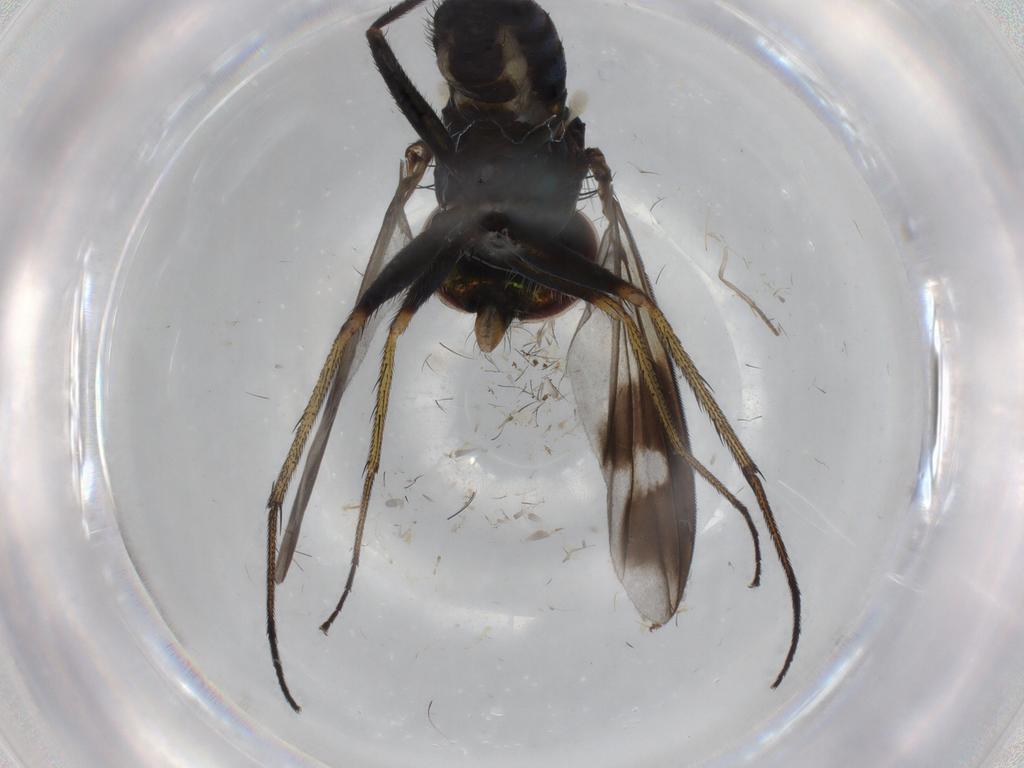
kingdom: Animalia
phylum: Arthropoda
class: Insecta
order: Diptera
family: Dolichopodidae
